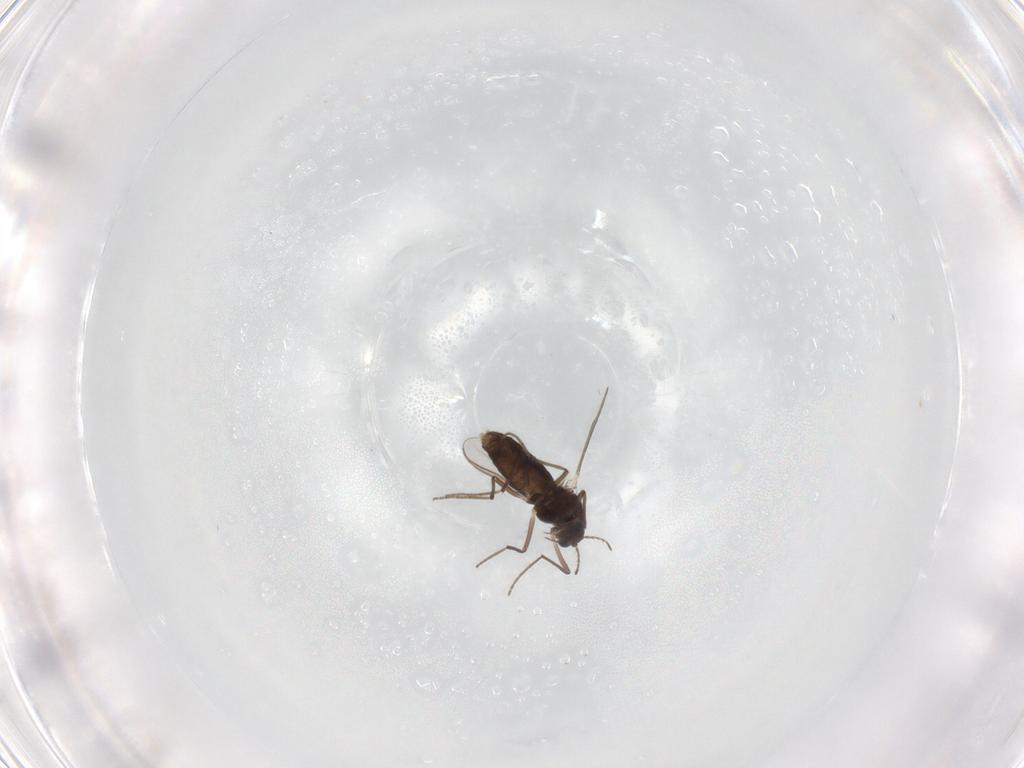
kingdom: Animalia
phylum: Arthropoda
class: Insecta
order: Diptera
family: Chironomidae
